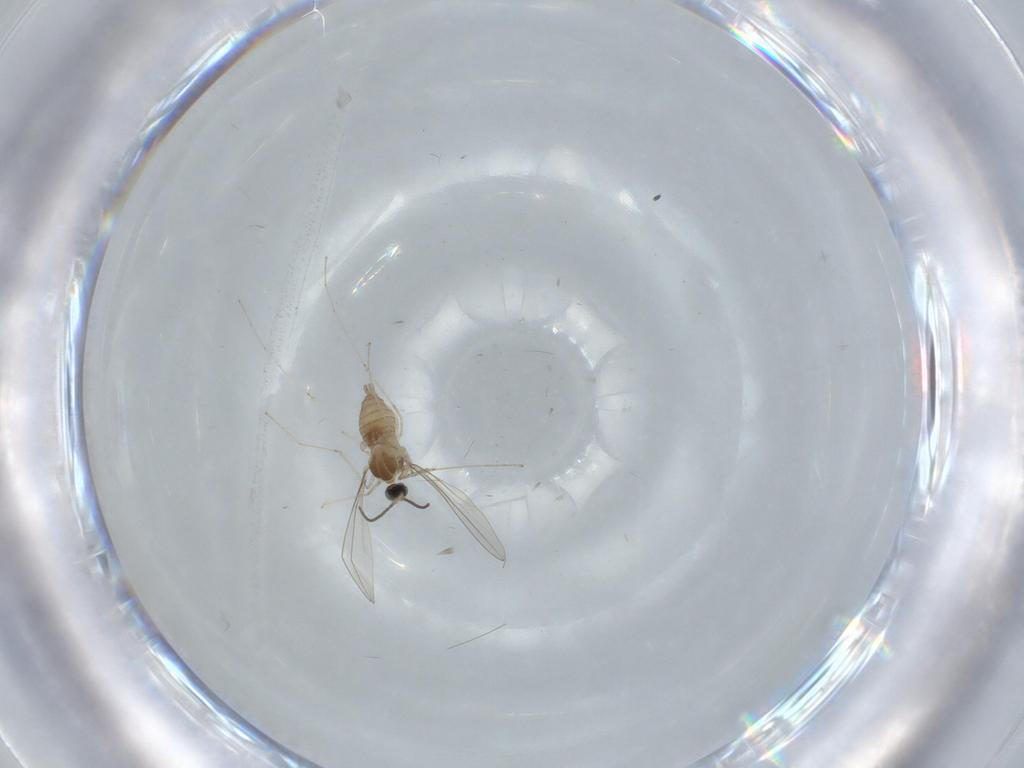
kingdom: Animalia
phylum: Arthropoda
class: Insecta
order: Diptera
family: Cecidomyiidae
